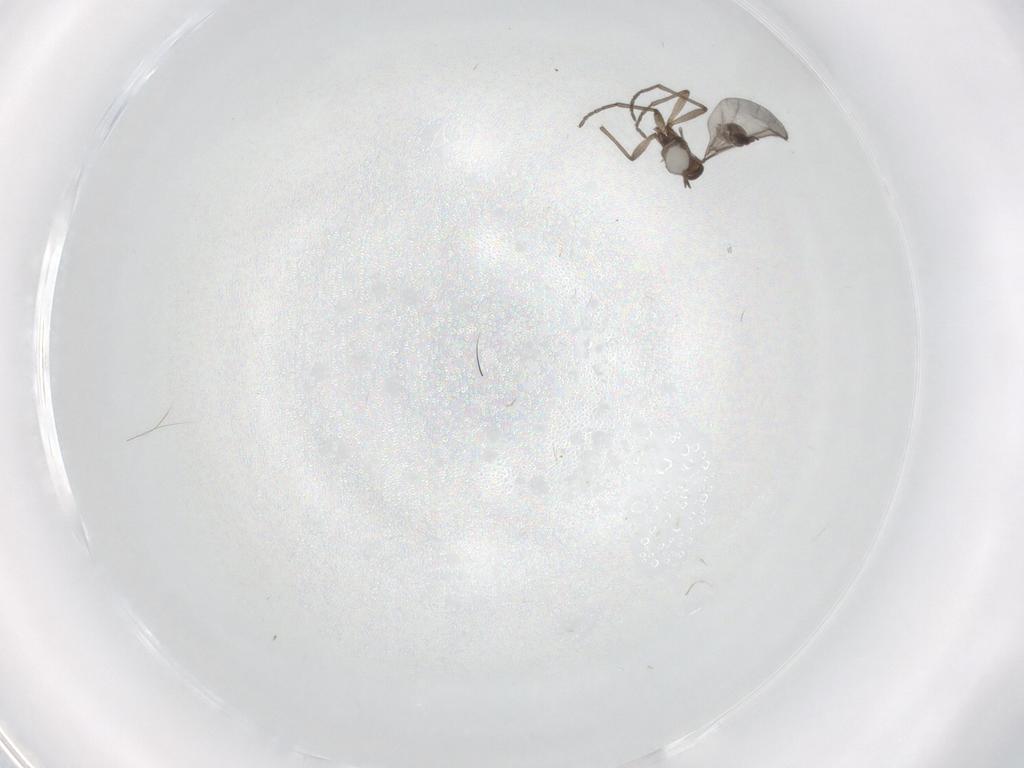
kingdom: Animalia
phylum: Arthropoda
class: Insecta
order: Diptera
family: Sciaridae
